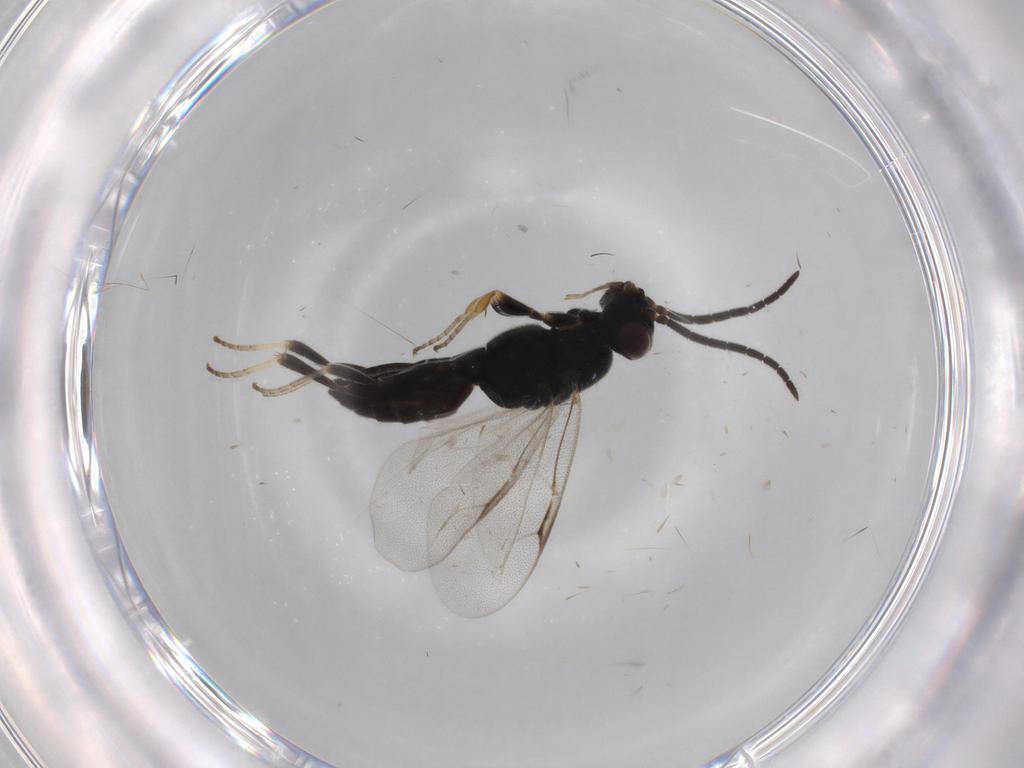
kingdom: Animalia
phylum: Arthropoda
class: Insecta
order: Hymenoptera
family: Dryinidae
